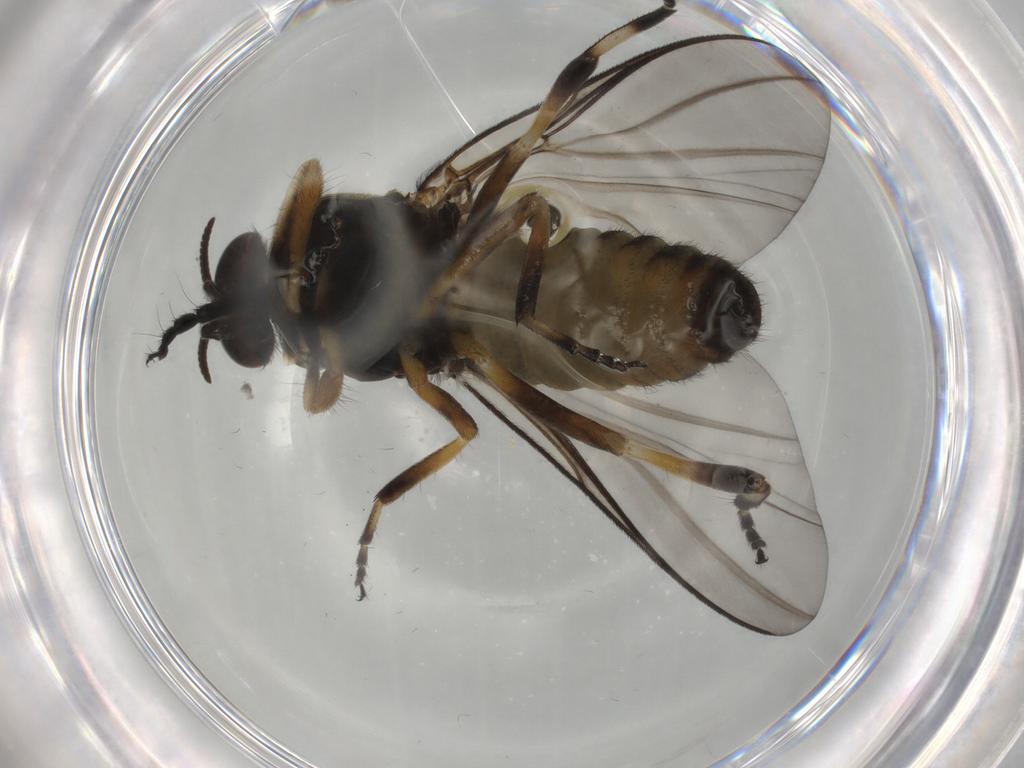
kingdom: Animalia
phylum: Arthropoda
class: Insecta
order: Diptera
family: Simuliidae
